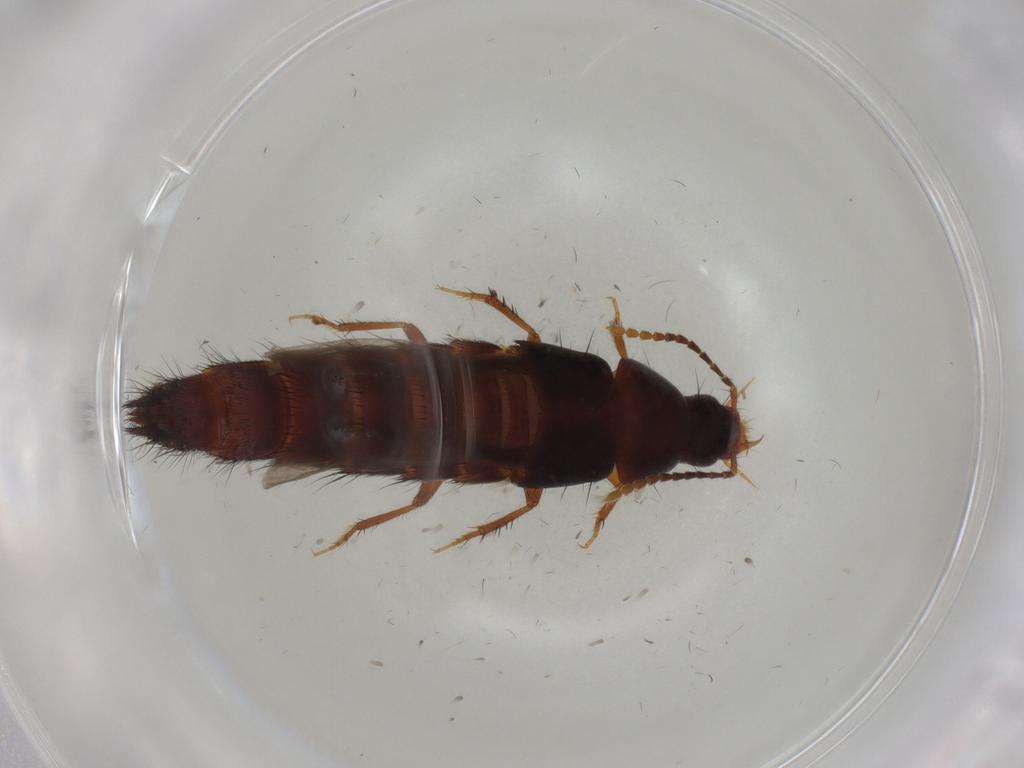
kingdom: Animalia
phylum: Arthropoda
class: Insecta
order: Coleoptera
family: Staphylinidae
